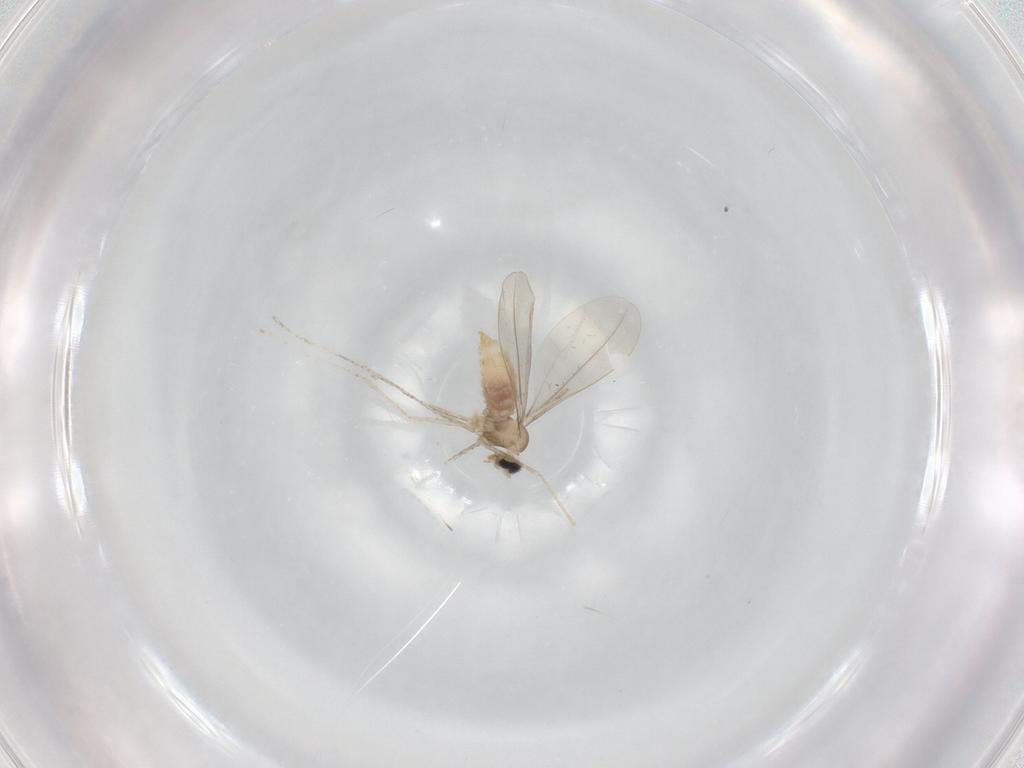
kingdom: Animalia
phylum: Arthropoda
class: Insecta
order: Diptera
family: Cecidomyiidae
